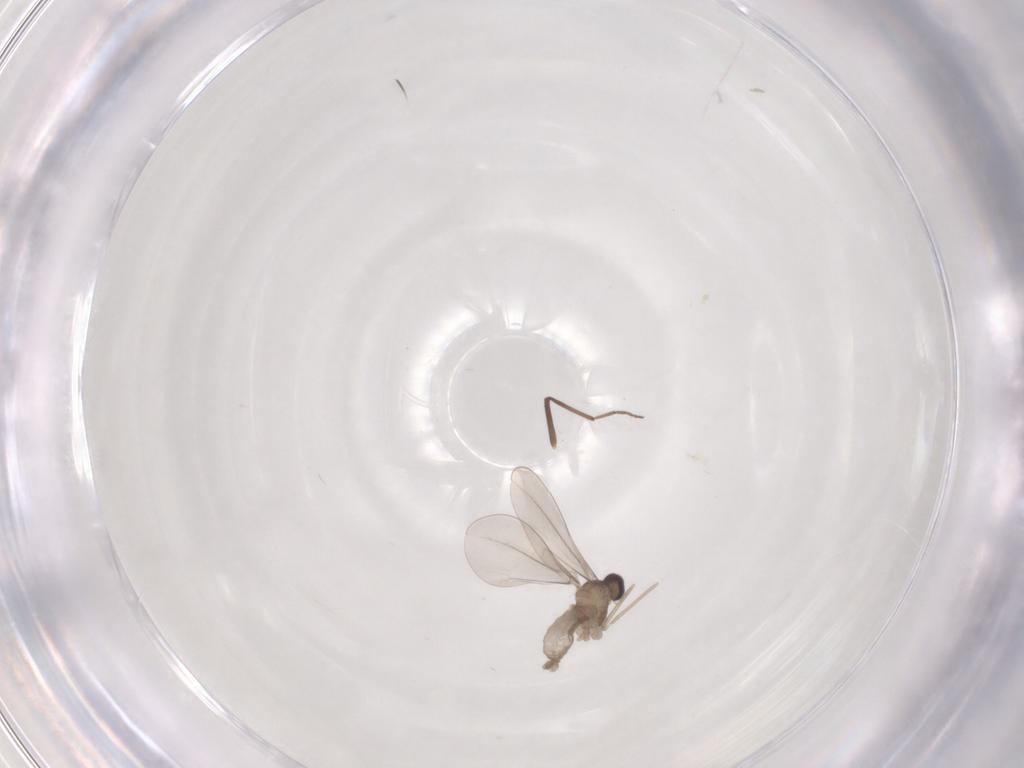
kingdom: Animalia
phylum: Arthropoda
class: Insecta
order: Diptera
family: Cecidomyiidae
